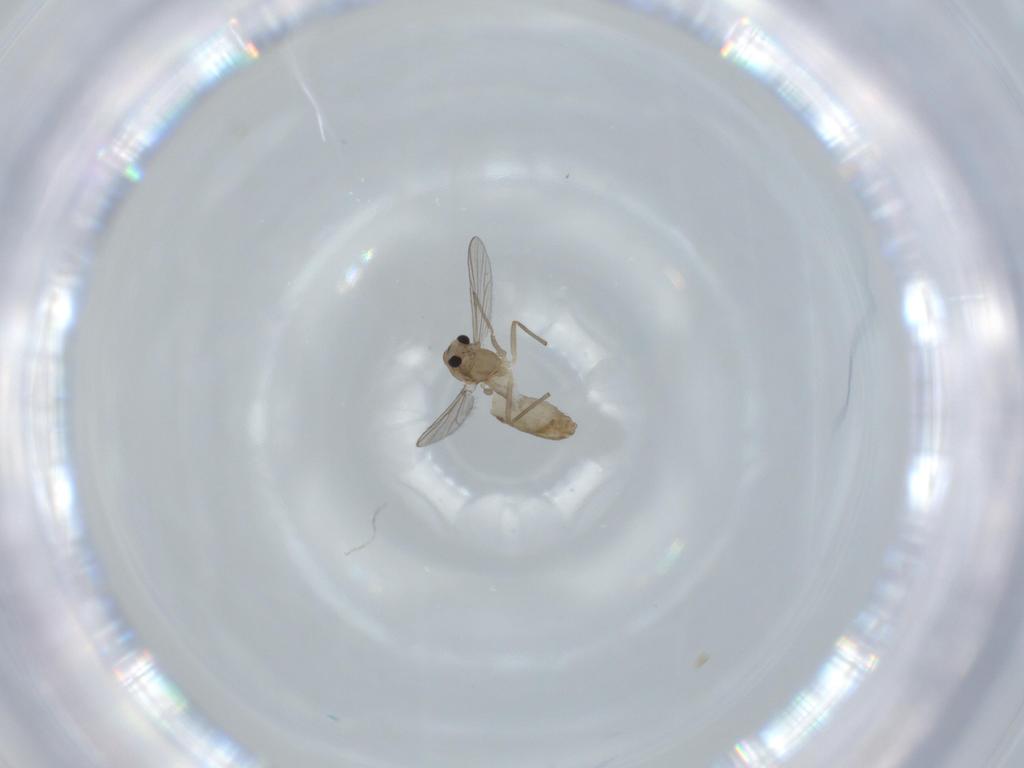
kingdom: Animalia
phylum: Arthropoda
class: Insecta
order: Diptera
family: Chironomidae
